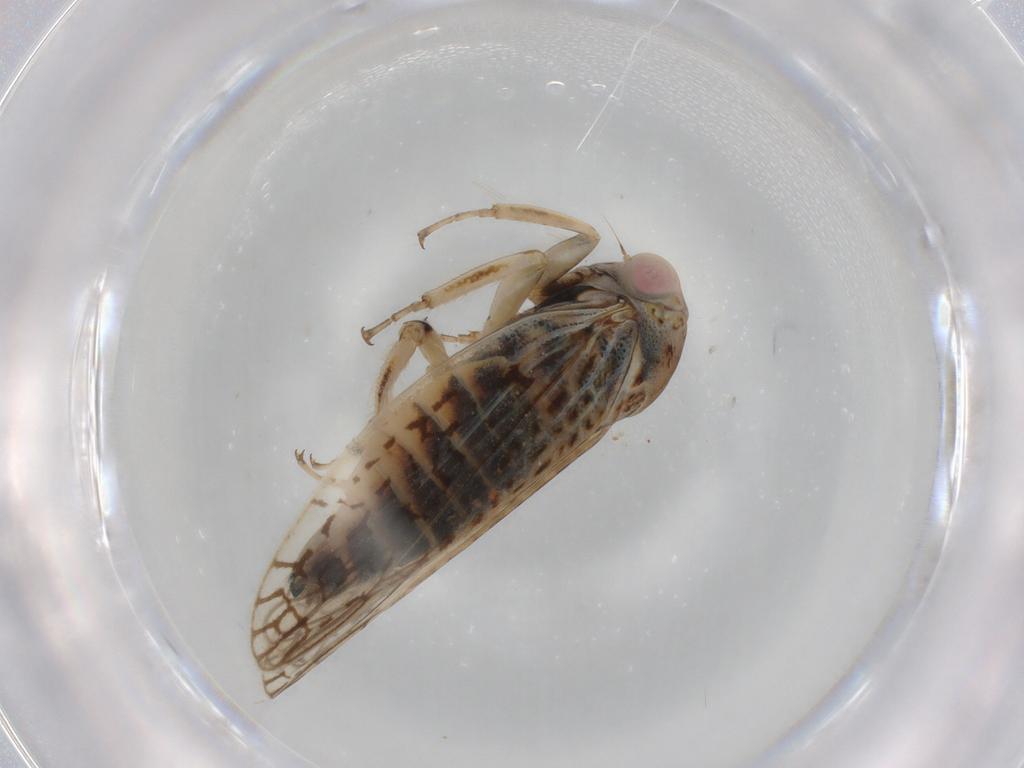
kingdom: Animalia
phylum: Arthropoda
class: Insecta
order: Hemiptera
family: Cicadellidae
